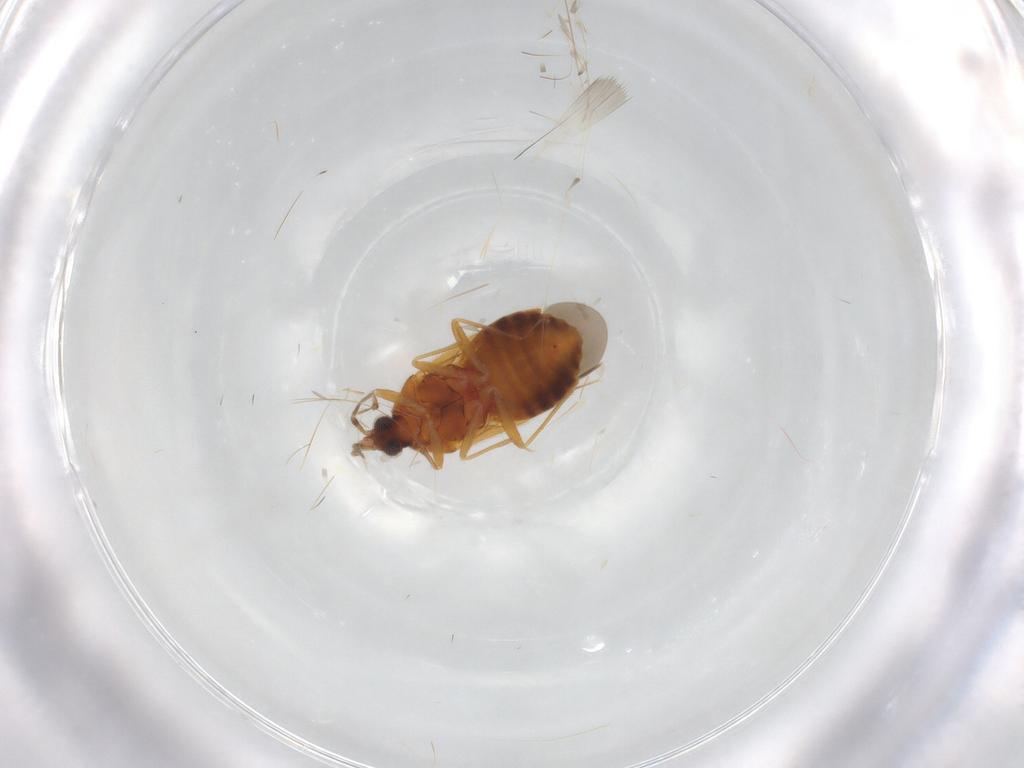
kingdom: Animalia
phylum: Arthropoda
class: Insecta
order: Hemiptera
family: Anthocoridae
